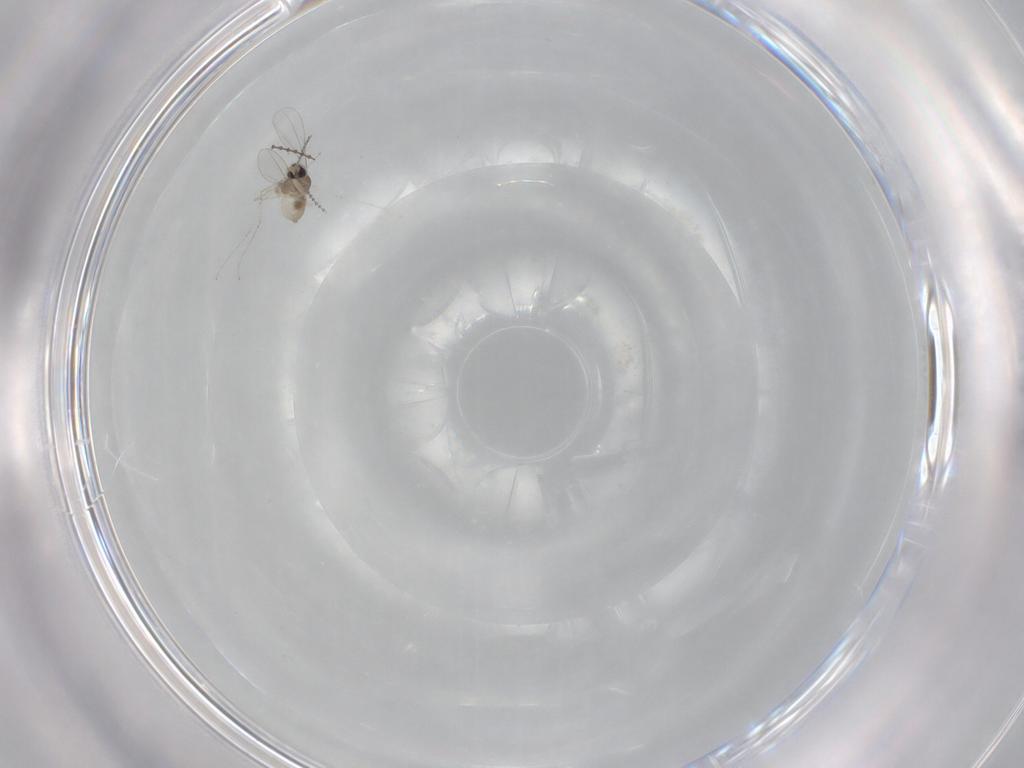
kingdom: Animalia
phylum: Arthropoda
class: Insecta
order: Diptera
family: Cecidomyiidae
